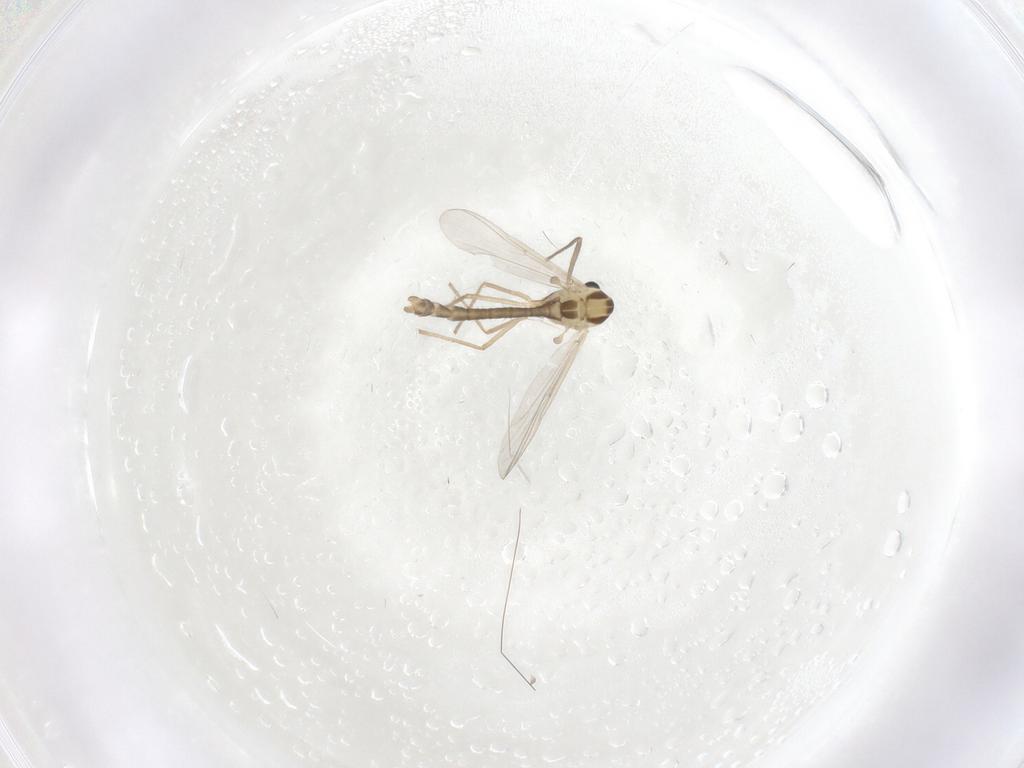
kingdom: Animalia
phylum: Arthropoda
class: Insecta
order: Diptera
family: Chironomidae
